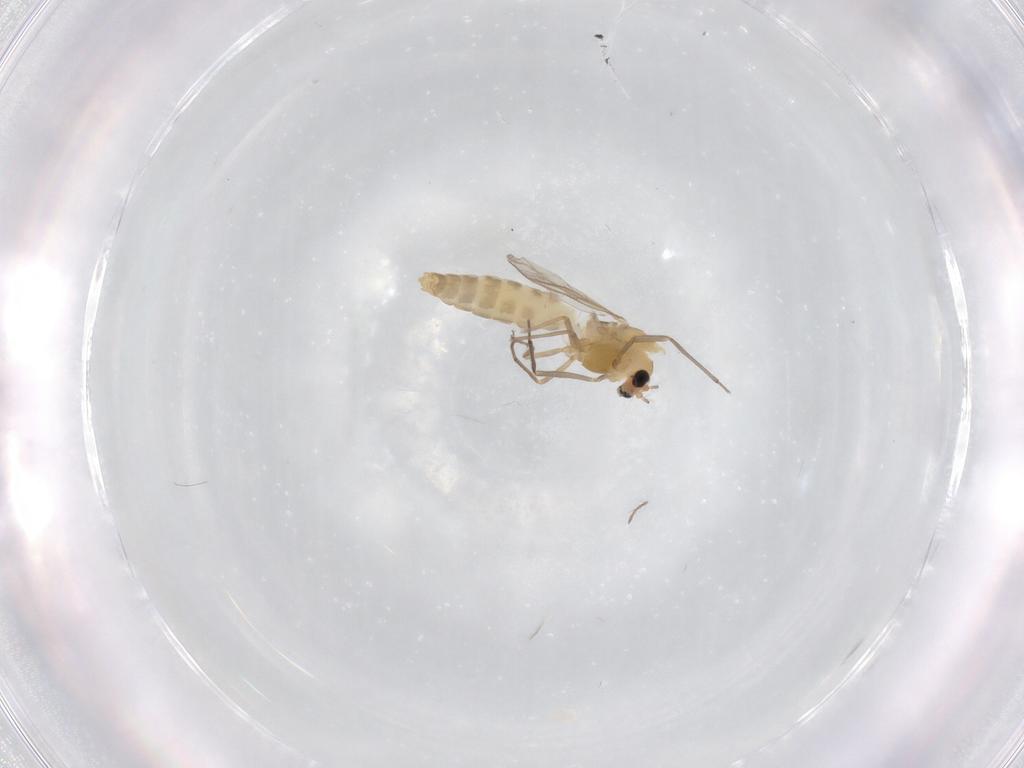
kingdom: Animalia
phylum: Arthropoda
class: Insecta
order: Diptera
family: Chironomidae
